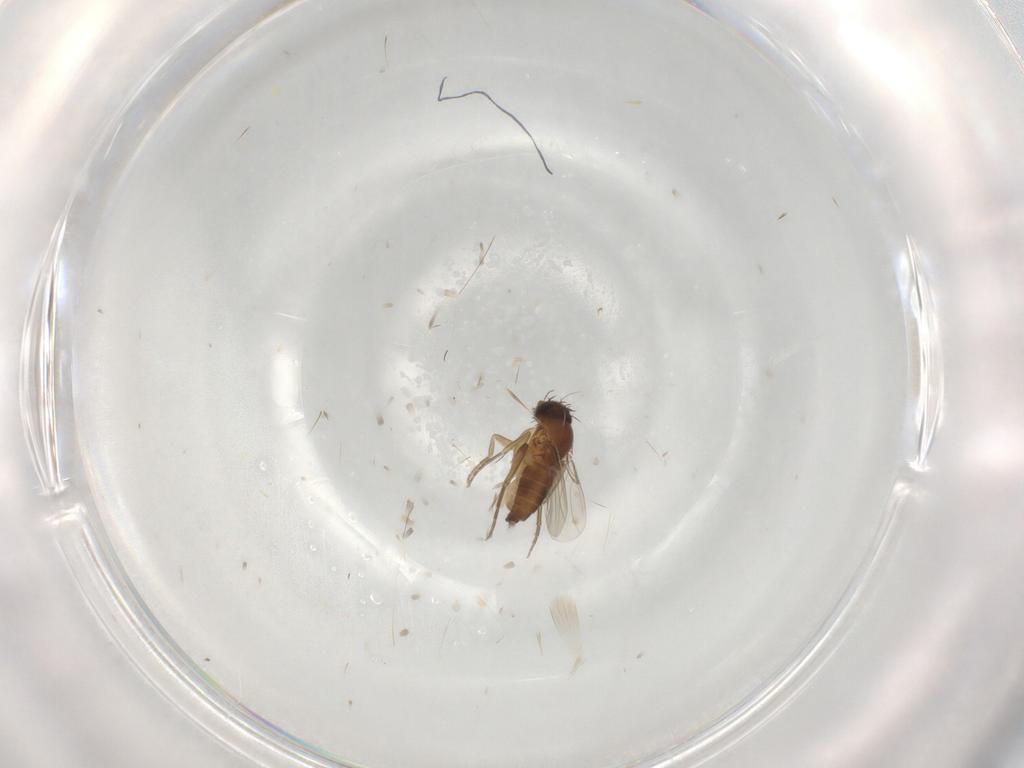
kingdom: Animalia
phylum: Arthropoda
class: Insecta
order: Diptera
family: Phoridae
